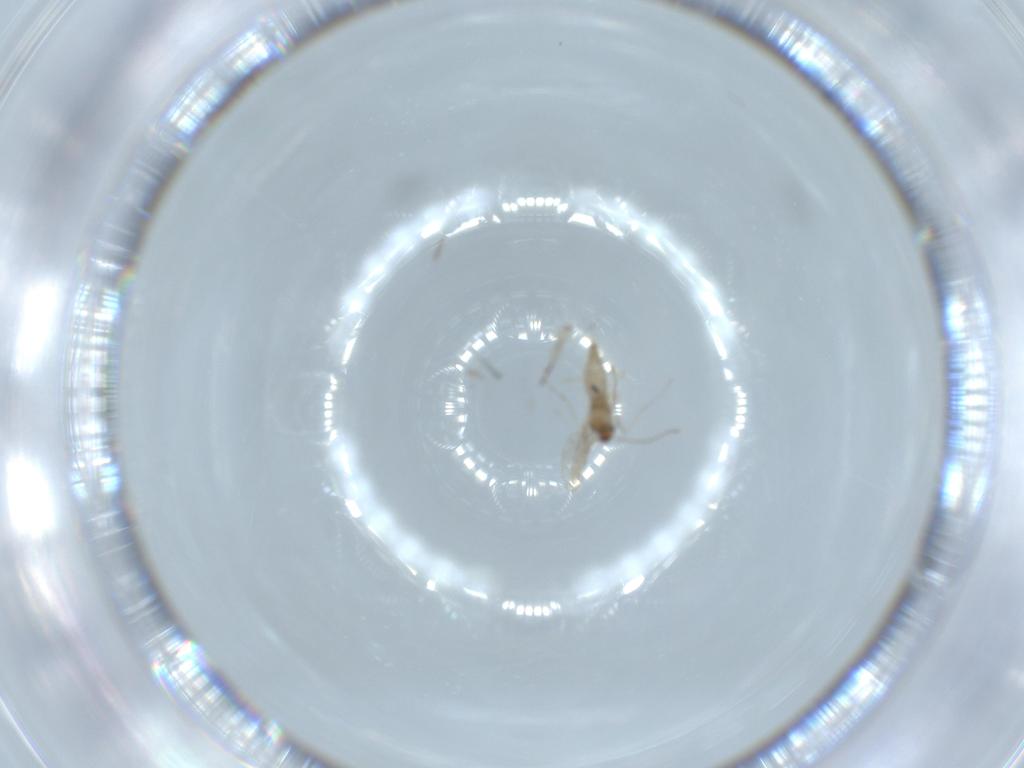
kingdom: Animalia
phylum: Arthropoda
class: Insecta
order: Diptera
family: Cecidomyiidae
